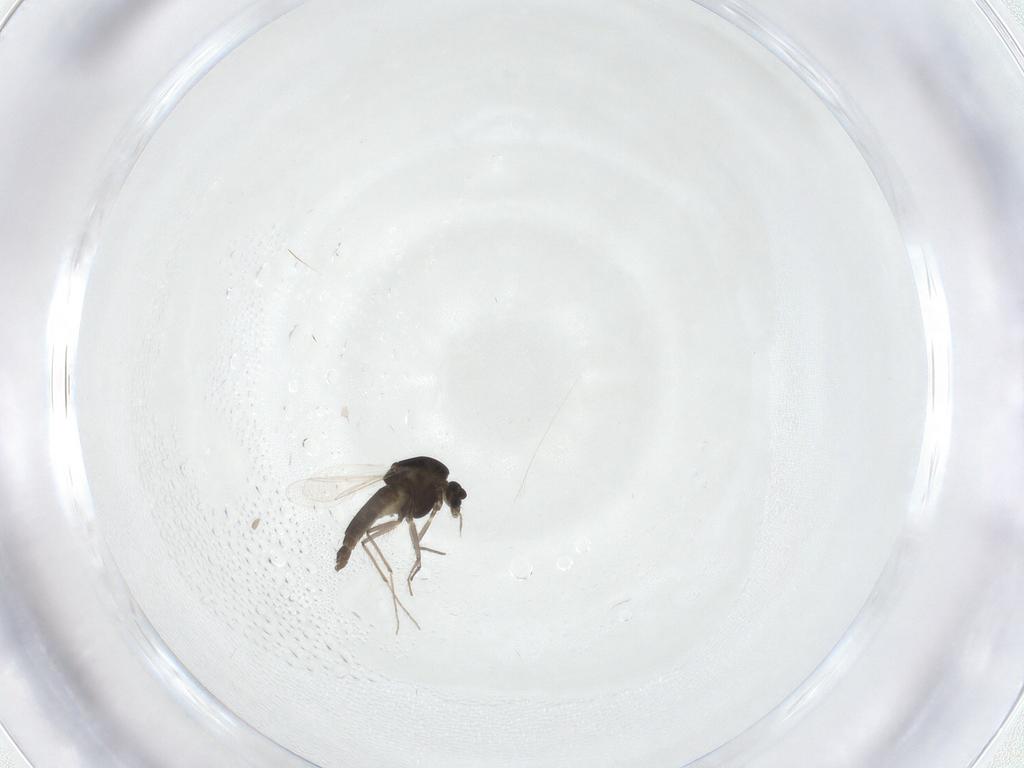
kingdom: Animalia
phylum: Arthropoda
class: Insecta
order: Diptera
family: Chironomidae
